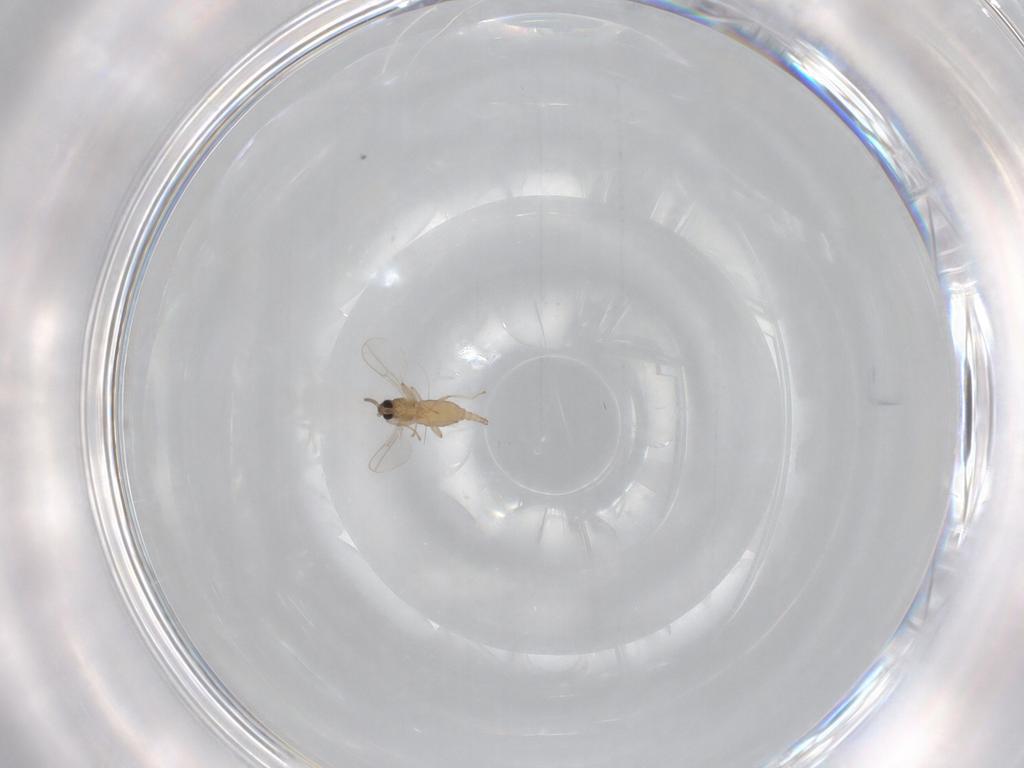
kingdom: Animalia
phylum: Arthropoda
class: Insecta
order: Diptera
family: Cecidomyiidae
